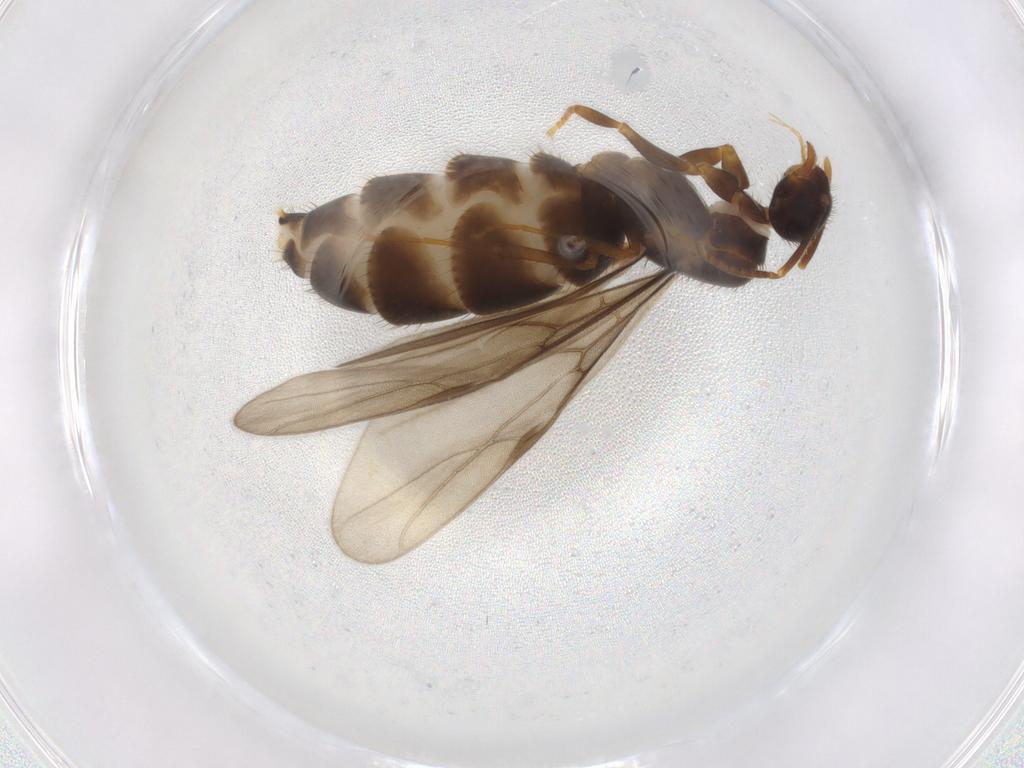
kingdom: Animalia
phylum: Arthropoda
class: Insecta
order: Hymenoptera
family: Formicidae
